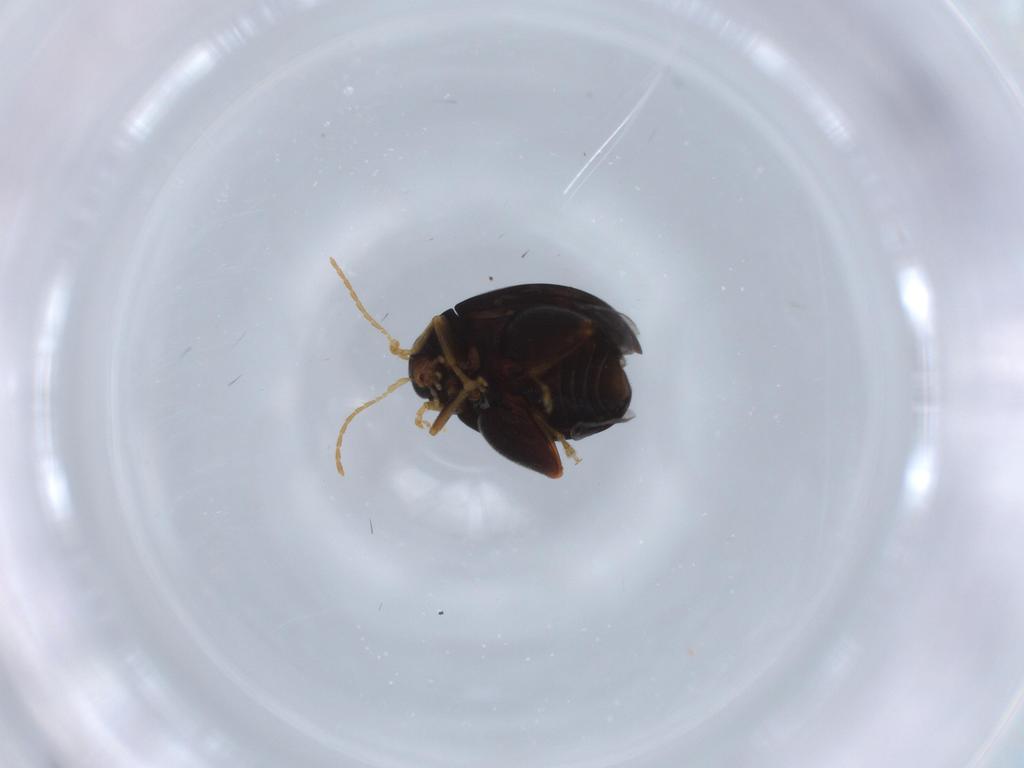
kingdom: Animalia
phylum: Arthropoda
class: Insecta
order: Coleoptera
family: Chrysomelidae
